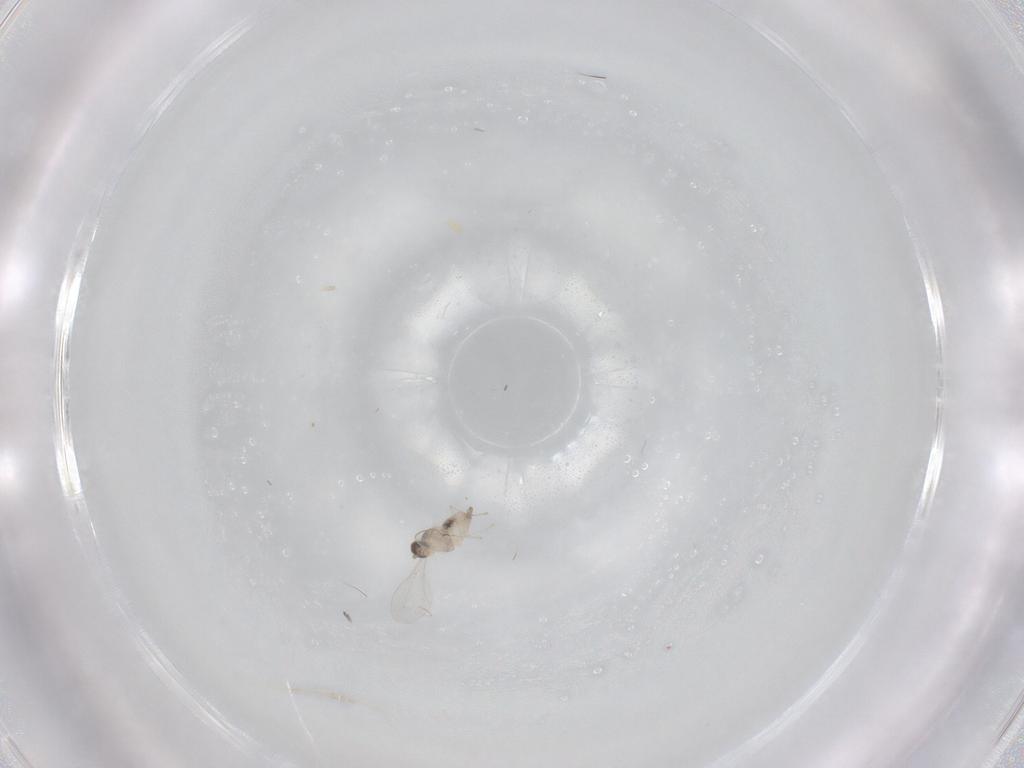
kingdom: Animalia
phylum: Arthropoda
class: Insecta
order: Diptera
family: Cecidomyiidae
